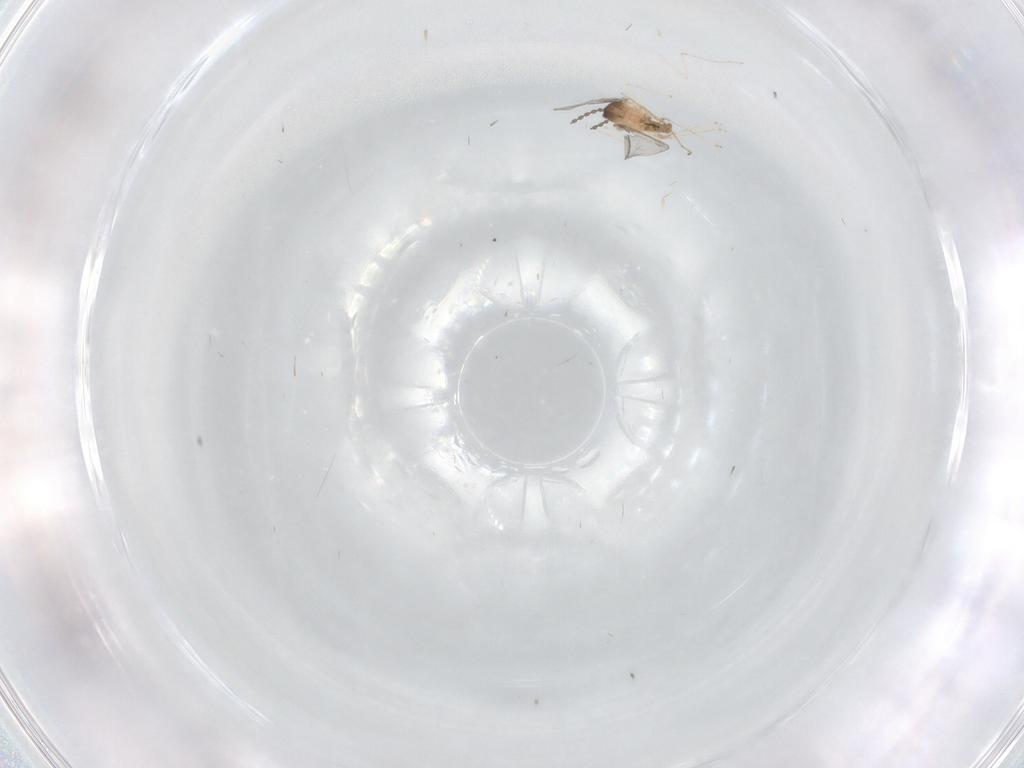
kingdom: Animalia
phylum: Arthropoda
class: Insecta
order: Diptera
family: Cecidomyiidae
